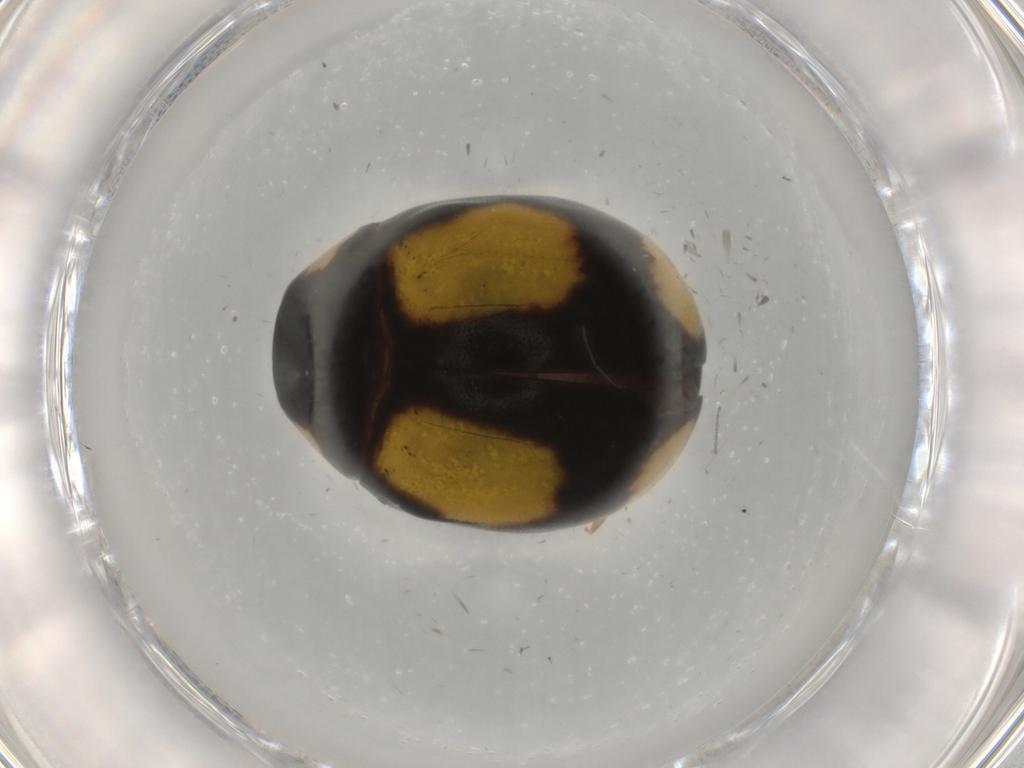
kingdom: Animalia
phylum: Arthropoda
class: Insecta
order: Coleoptera
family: Coccinellidae
